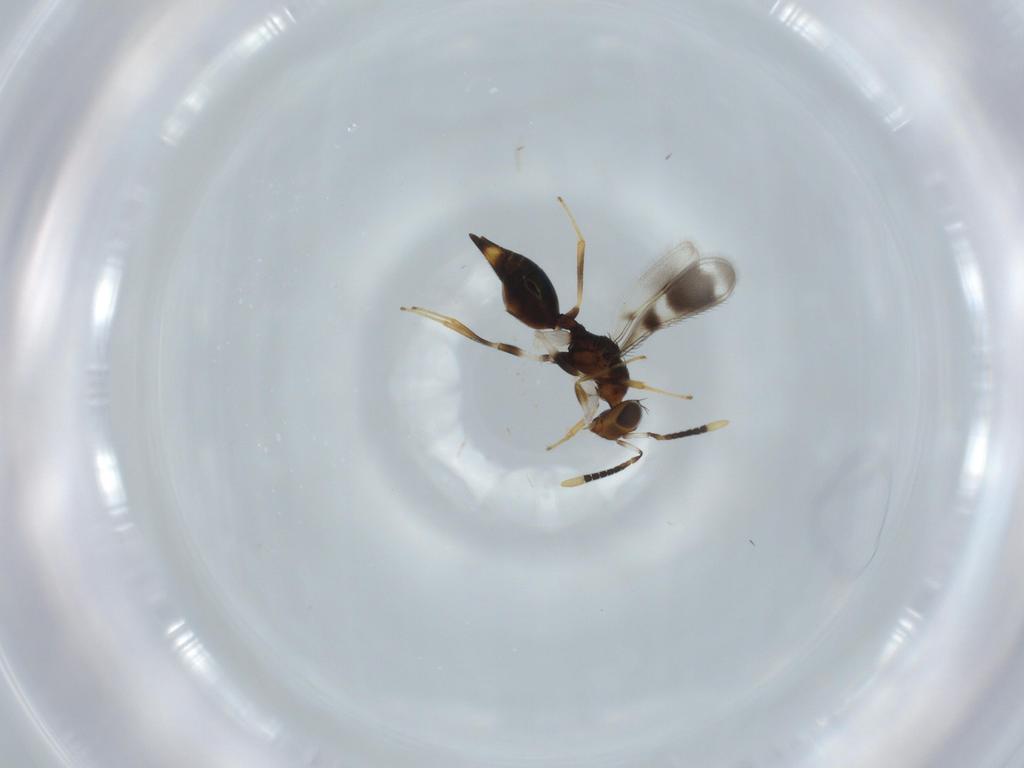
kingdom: Animalia
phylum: Arthropoda
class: Insecta
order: Hymenoptera
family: Diparidae
